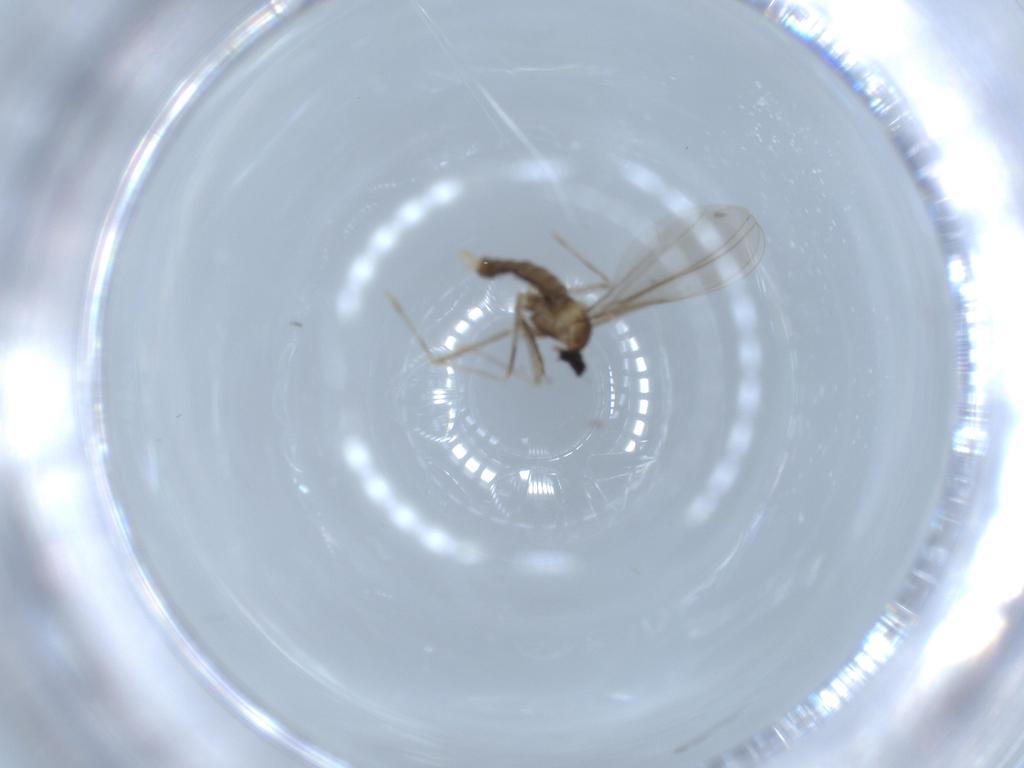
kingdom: Animalia
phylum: Arthropoda
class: Insecta
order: Diptera
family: Cecidomyiidae
